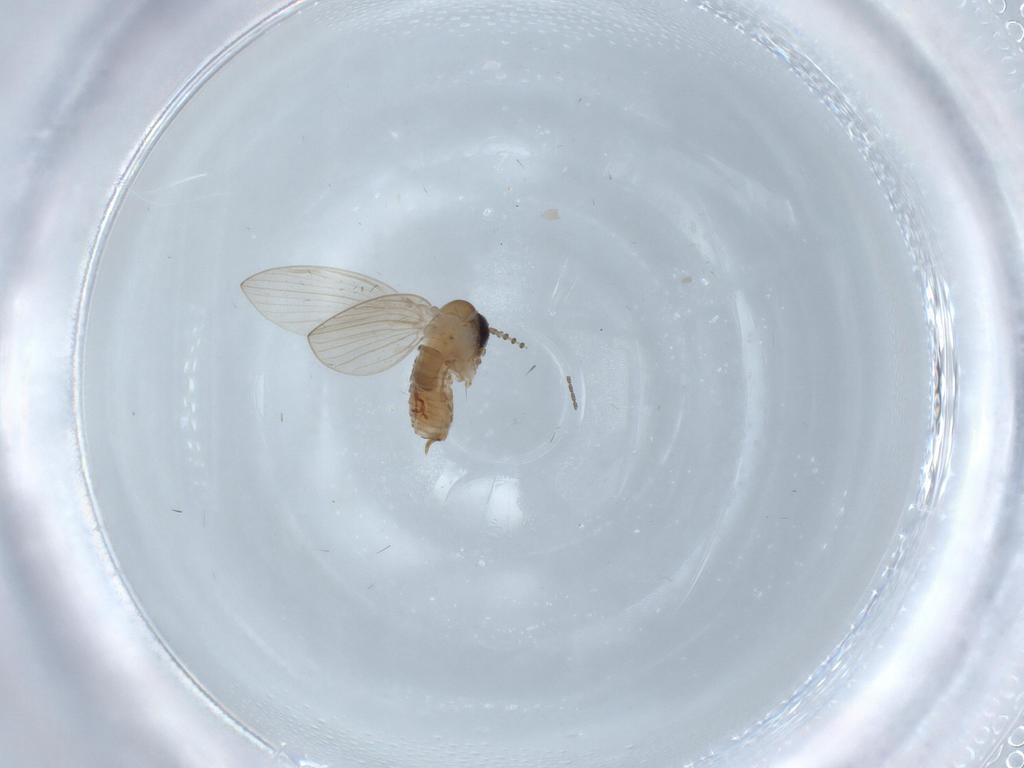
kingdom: Animalia
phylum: Arthropoda
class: Insecta
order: Diptera
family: Psychodidae
